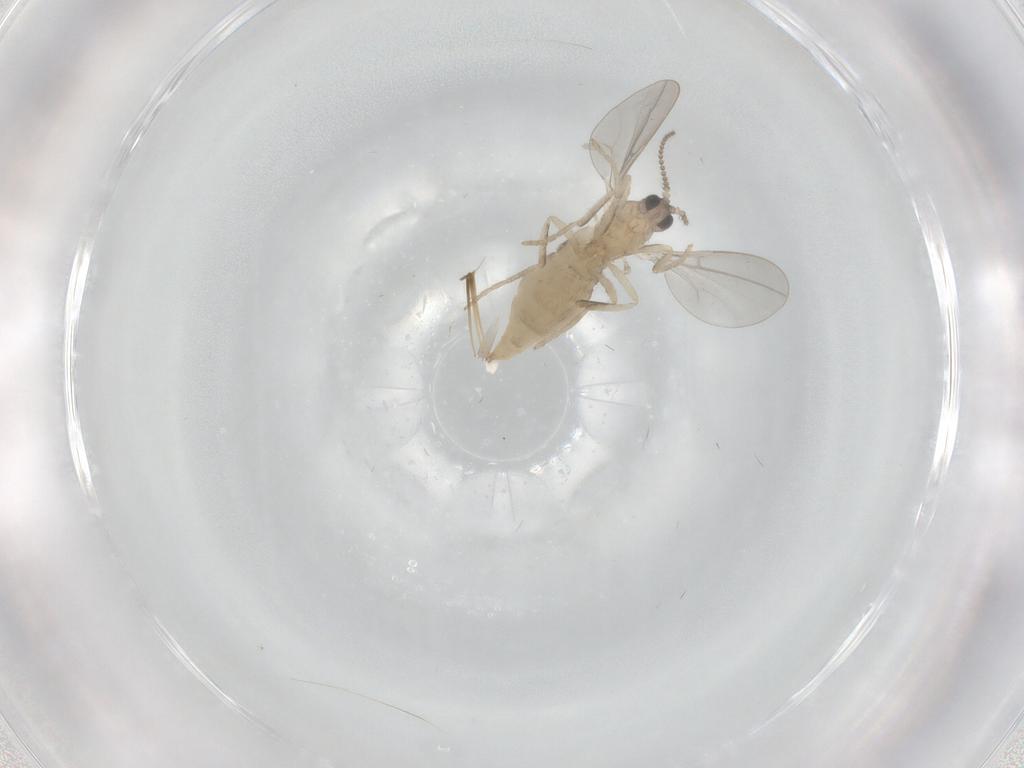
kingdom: Animalia
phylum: Arthropoda
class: Insecta
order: Diptera
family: Cecidomyiidae
